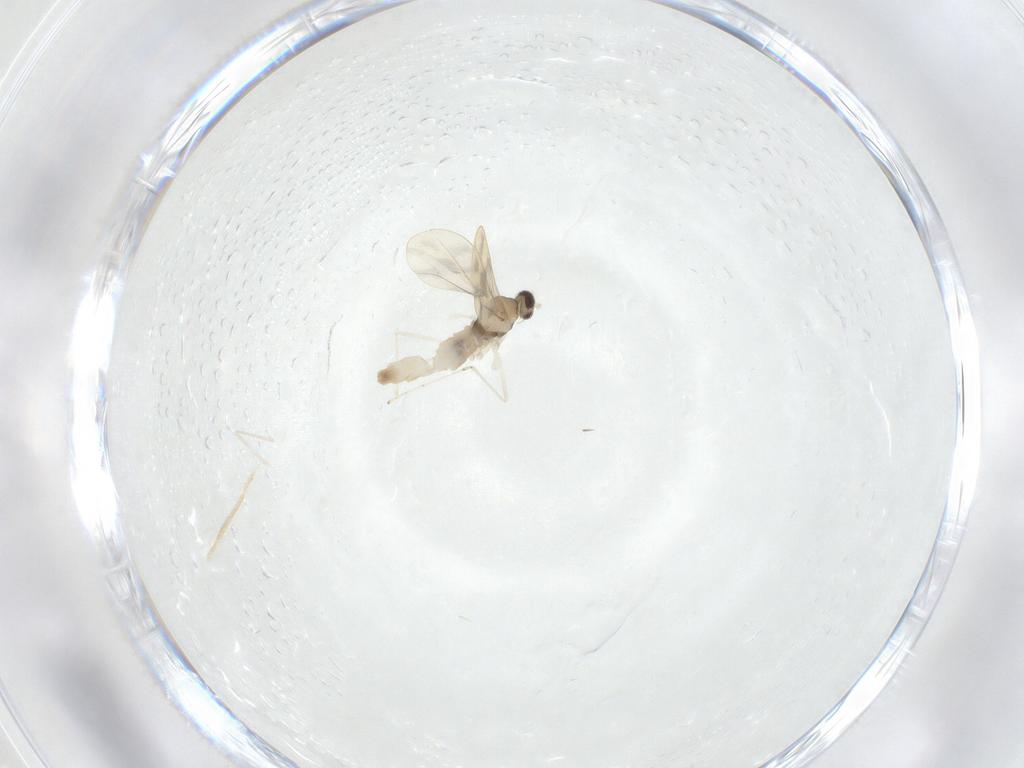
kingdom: Animalia
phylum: Arthropoda
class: Insecta
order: Diptera
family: Cecidomyiidae
